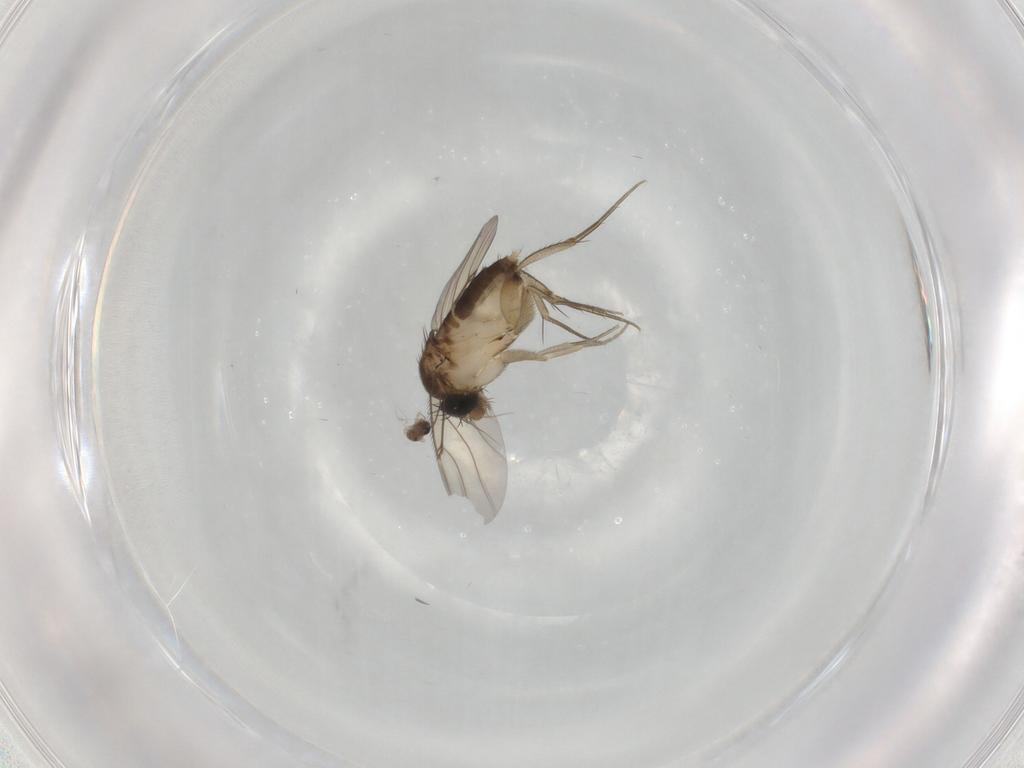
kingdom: Animalia
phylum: Arthropoda
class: Insecta
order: Diptera
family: Phoridae
